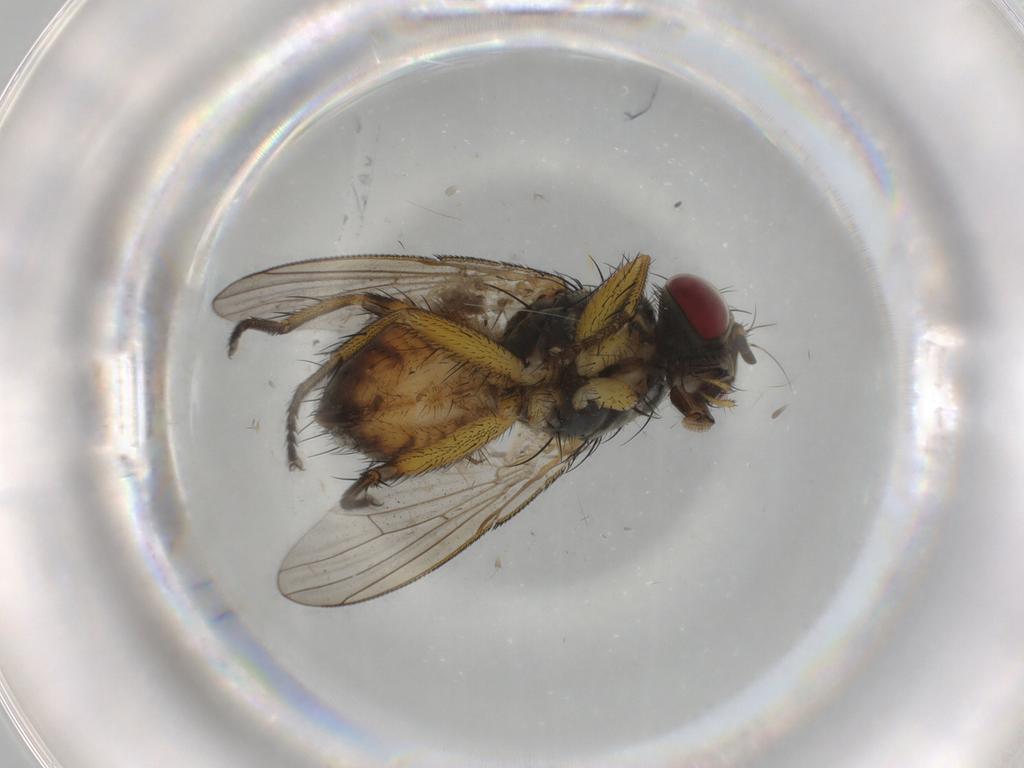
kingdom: Animalia
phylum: Arthropoda
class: Insecta
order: Diptera
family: Muscidae
